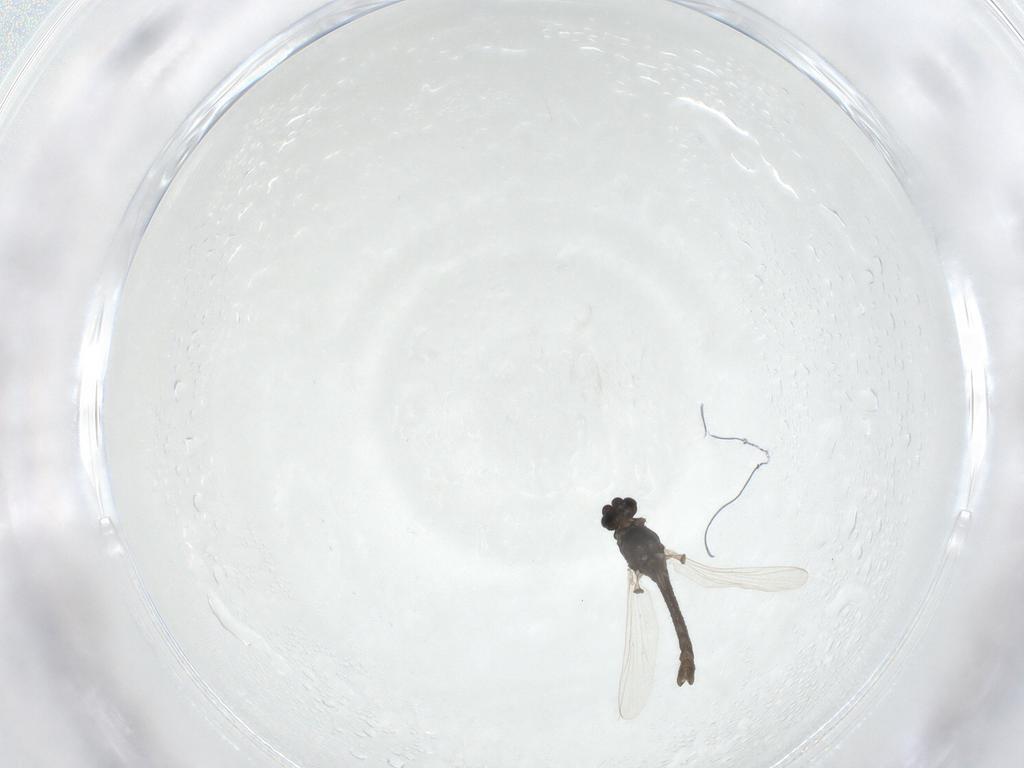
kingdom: Animalia
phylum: Arthropoda
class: Insecta
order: Diptera
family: Chironomidae
